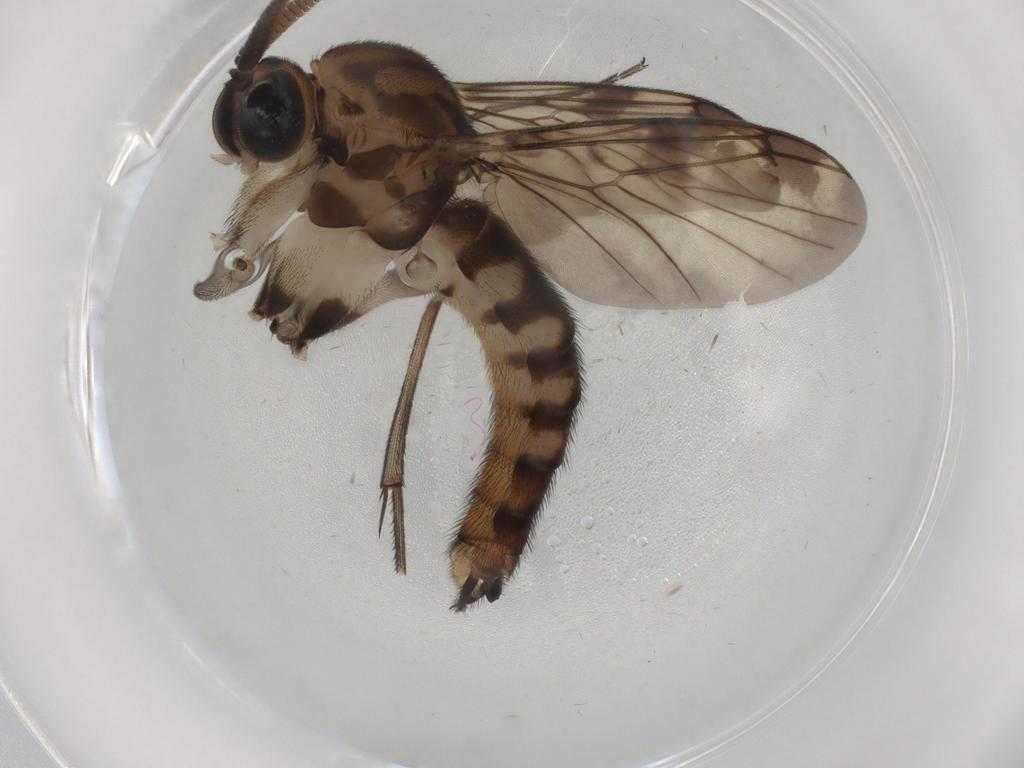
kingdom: Animalia
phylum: Arthropoda
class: Insecta
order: Diptera
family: Cecidomyiidae
